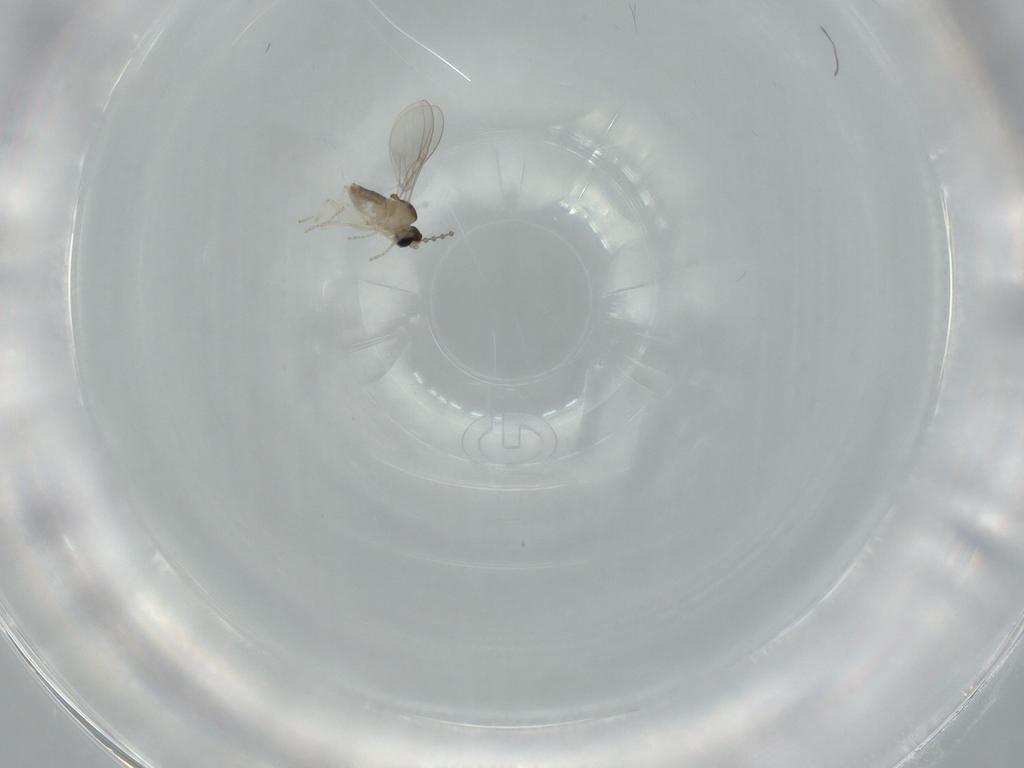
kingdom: Animalia
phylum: Arthropoda
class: Insecta
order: Diptera
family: Cecidomyiidae
